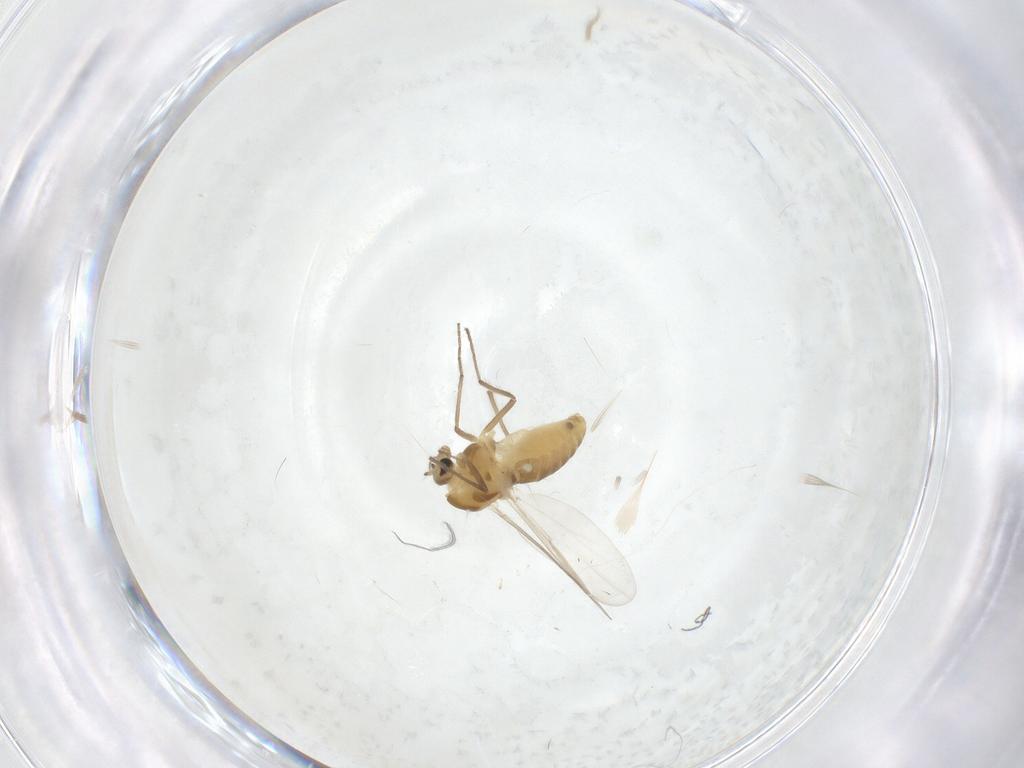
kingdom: Animalia
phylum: Arthropoda
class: Insecta
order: Diptera
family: Chironomidae
